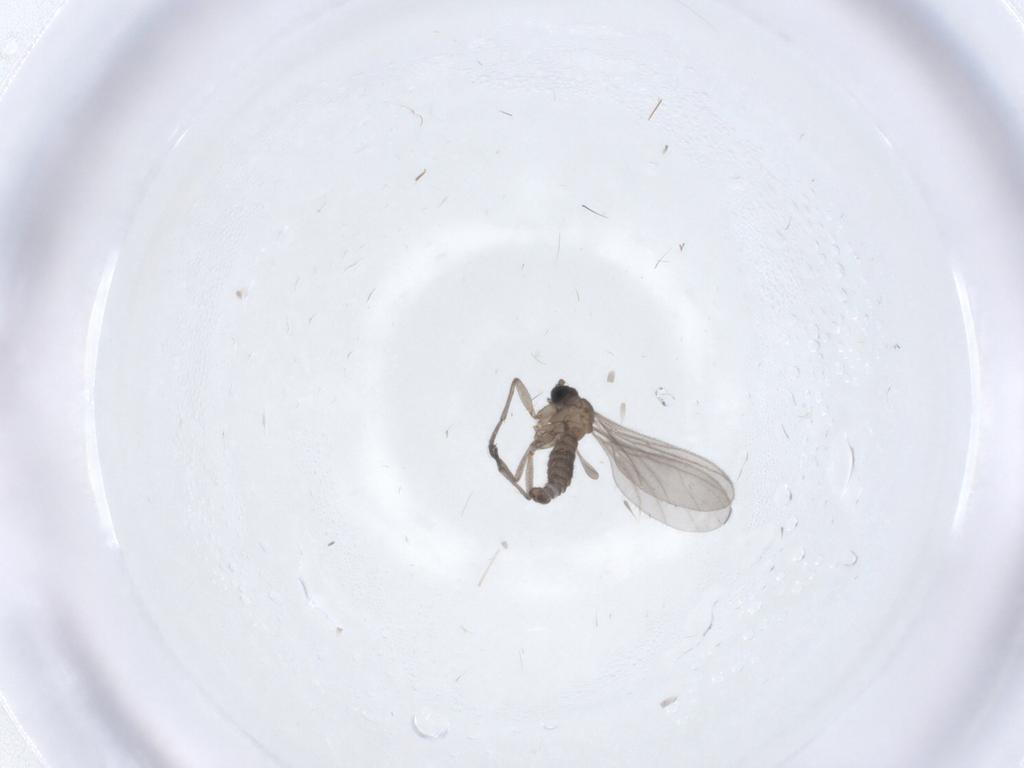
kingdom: Animalia
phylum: Arthropoda
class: Insecta
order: Diptera
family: Sciaridae
